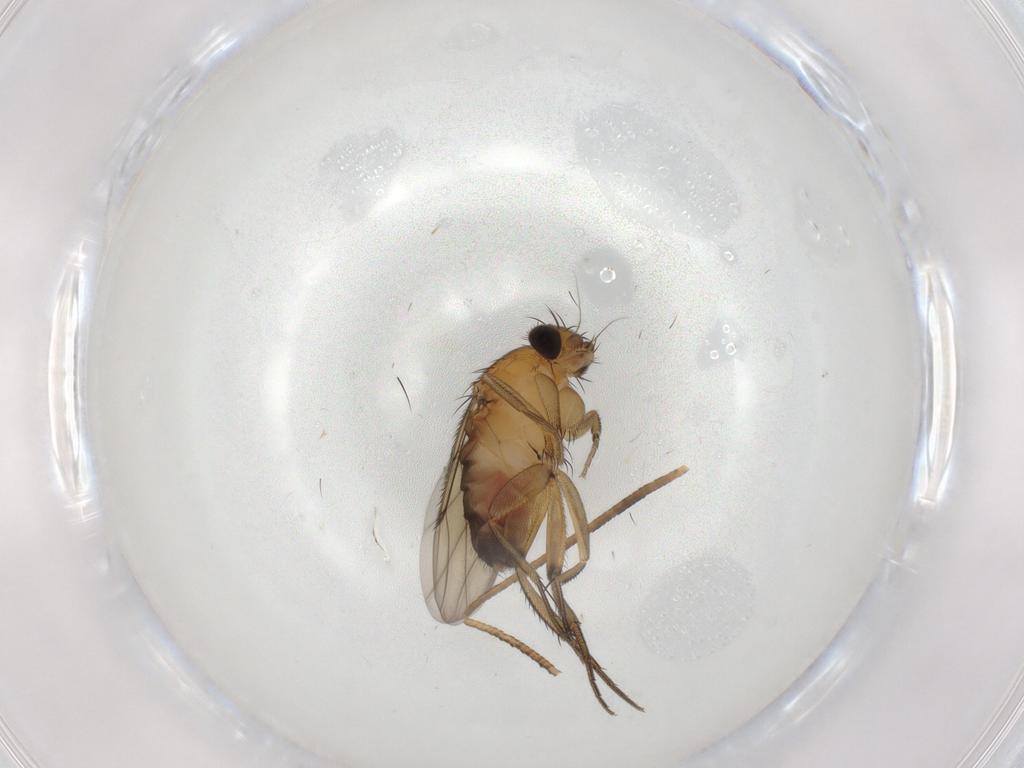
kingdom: Animalia
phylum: Arthropoda
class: Insecta
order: Diptera
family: Phoridae
